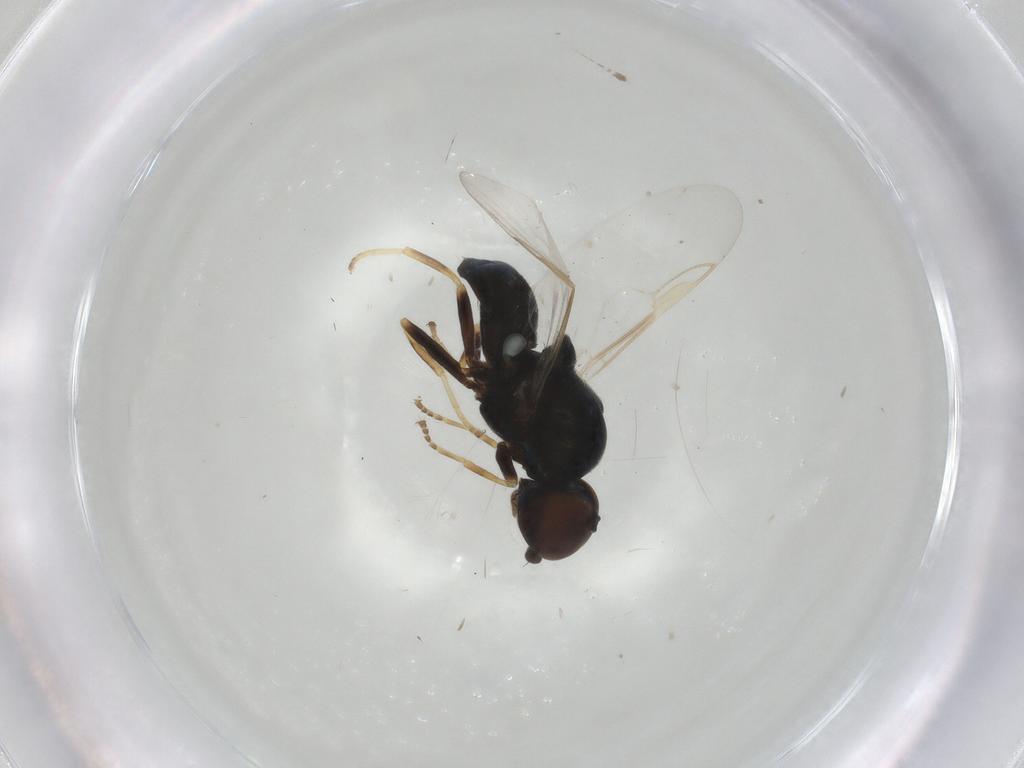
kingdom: Animalia
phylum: Arthropoda
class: Insecta
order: Diptera
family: Stratiomyidae
